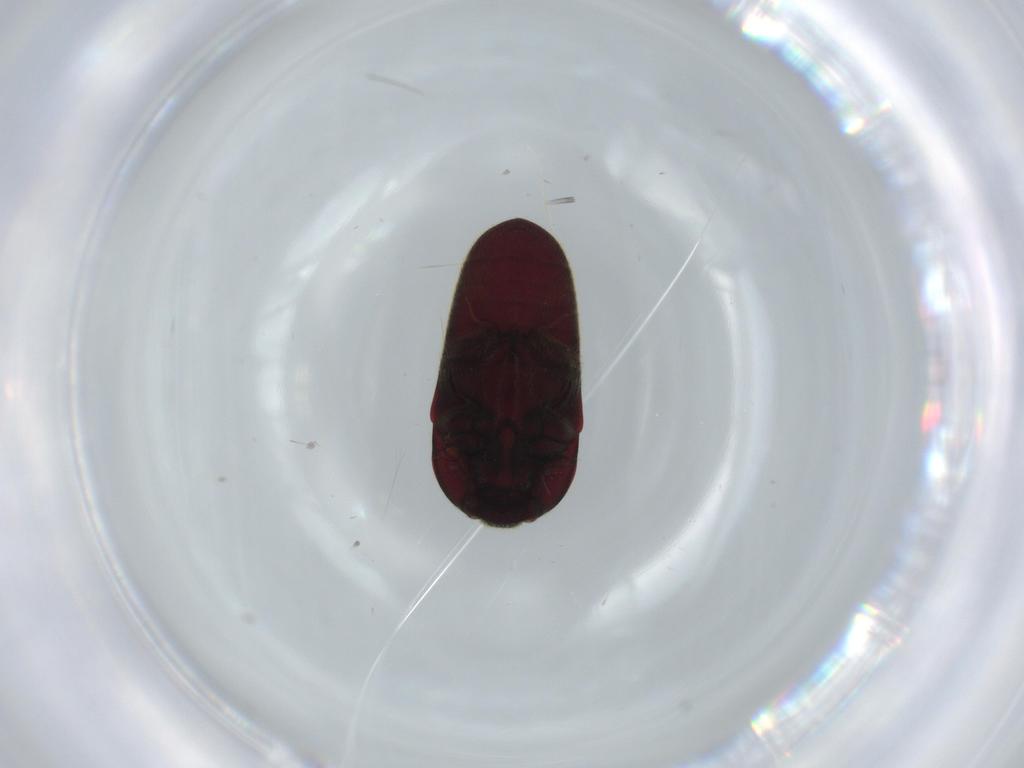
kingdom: Animalia
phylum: Arthropoda
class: Insecta
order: Coleoptera
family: Throscidae
